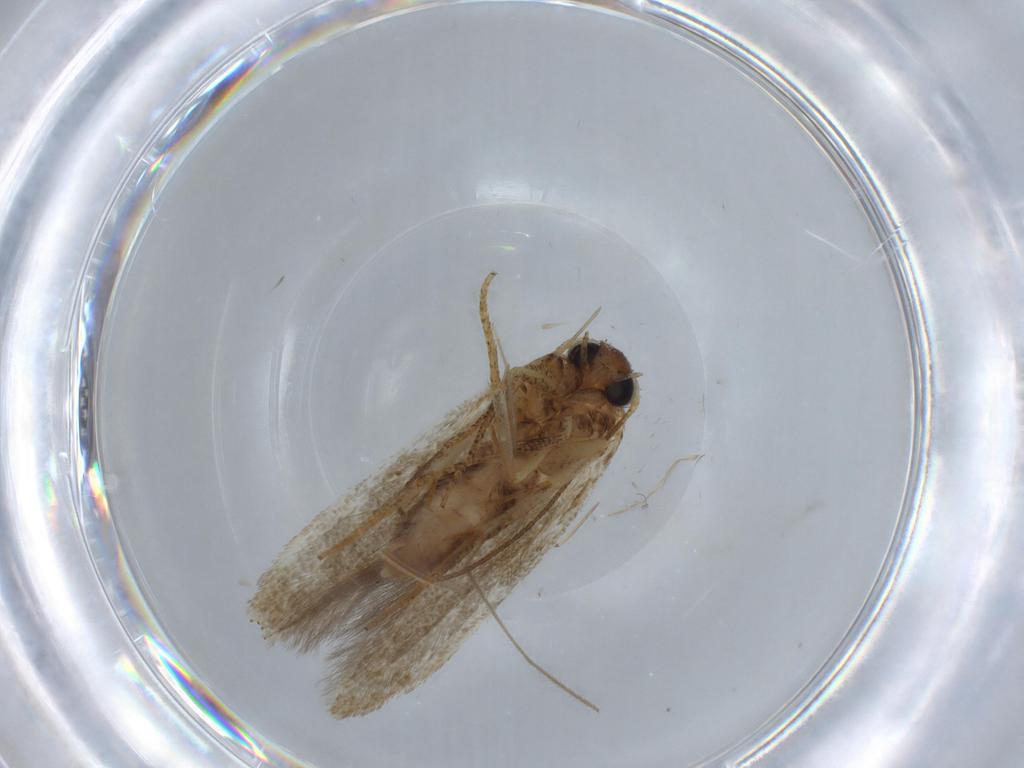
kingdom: Animalia
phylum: Arthropoda
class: Insecta
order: Lepidoptera
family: Blastobasidae
